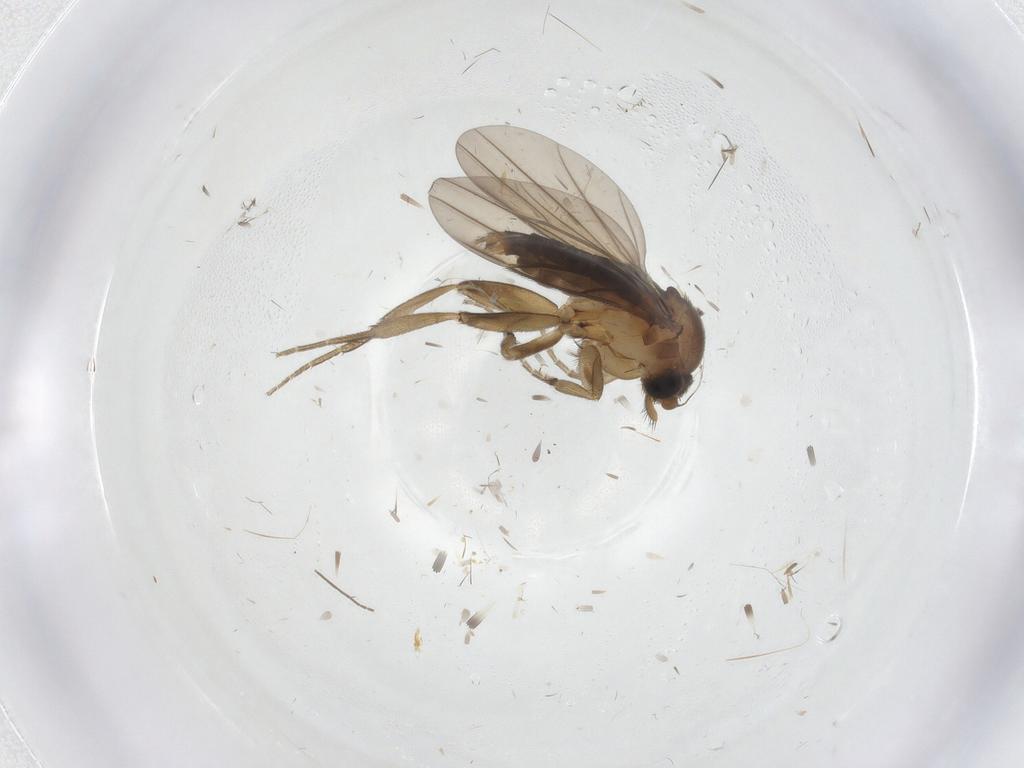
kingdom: Animalia
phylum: Arthropoda
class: Insecta
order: Diptera
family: Phoridae
